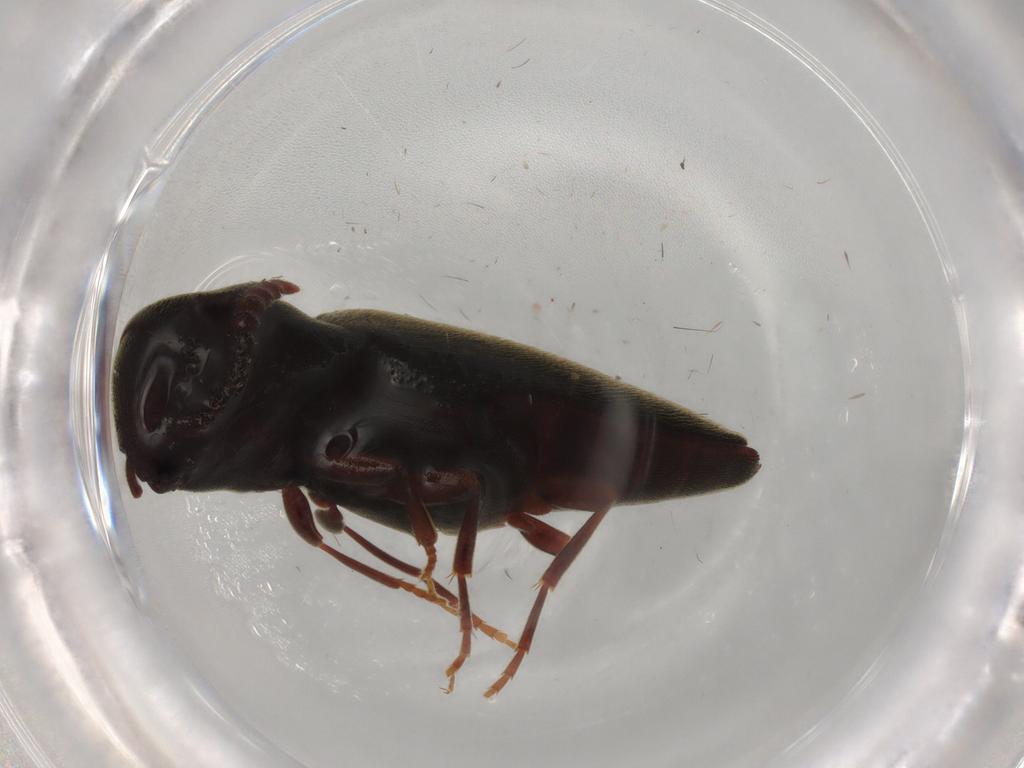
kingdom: Animalia
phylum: Arthropoda
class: Insecta
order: Coleoptera
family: Eucnemidae
